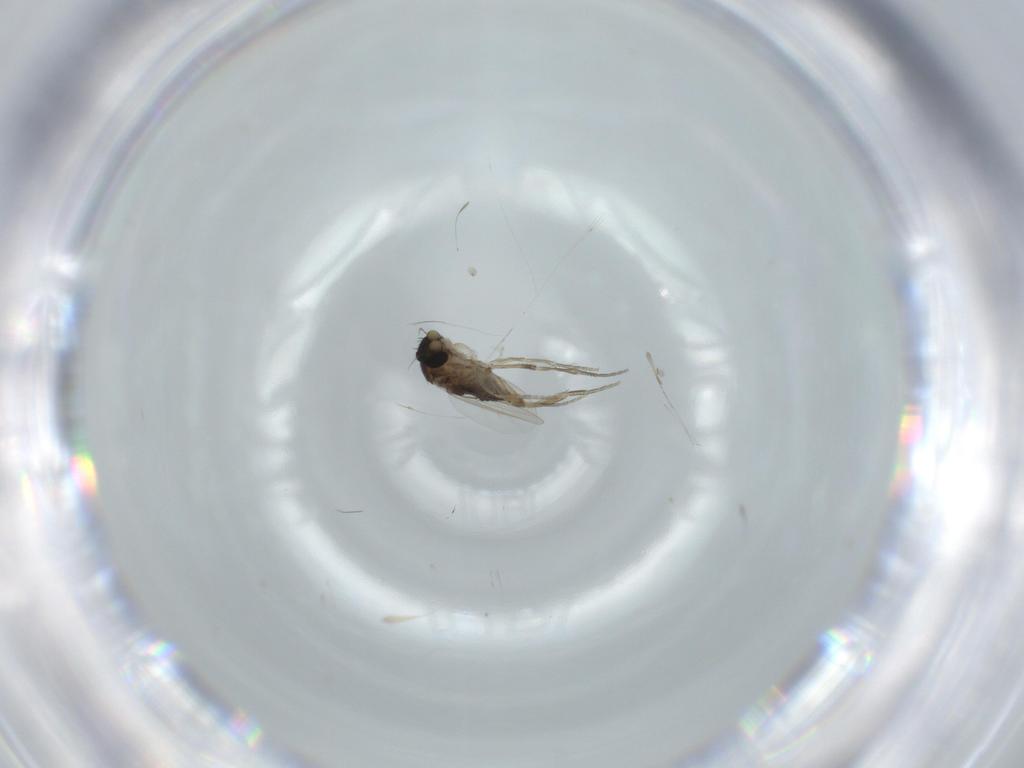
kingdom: Animalia
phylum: Arthropoda
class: Insecta
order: Diptera
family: Phoridae
